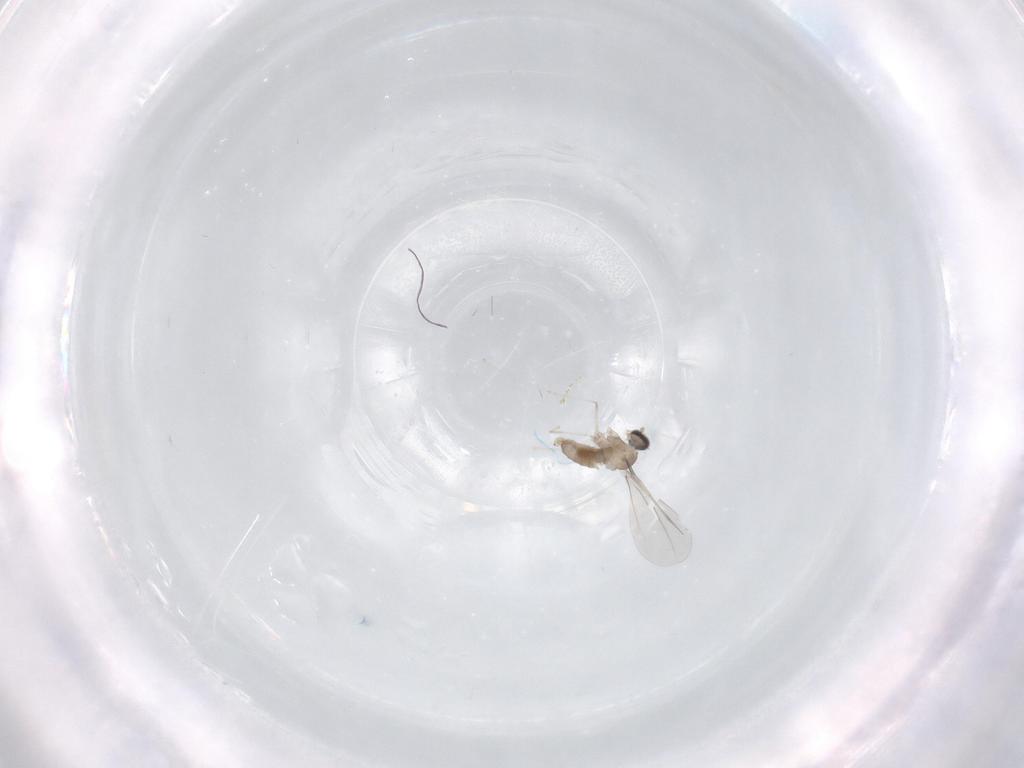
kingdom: Animalia
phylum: Arthropoda
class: Insecta
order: Diptera
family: Cecidomyiidae
